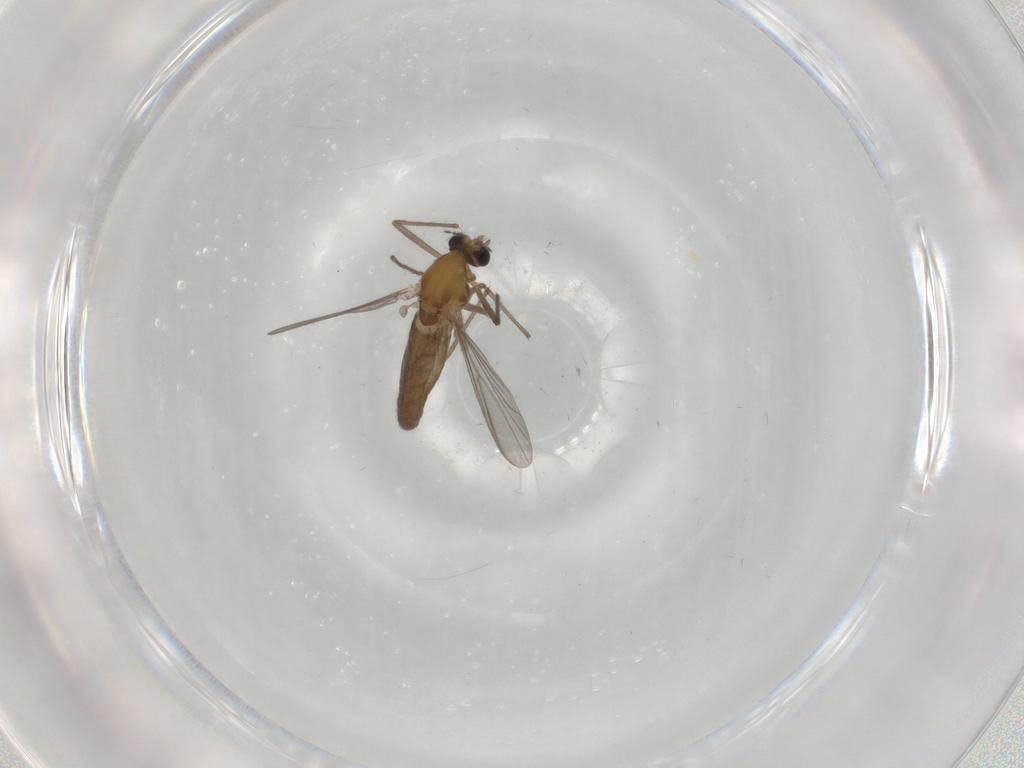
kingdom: Animalia
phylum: Arthropoda
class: Insecta
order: Diptera
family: Chironomidae
